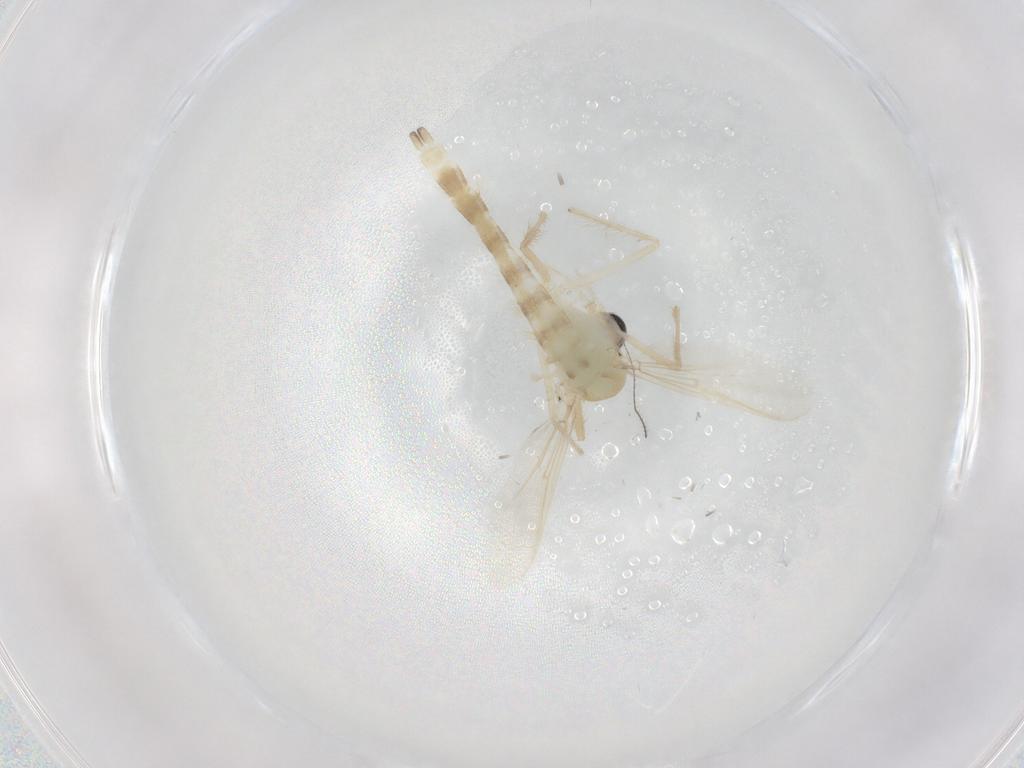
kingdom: Animalia
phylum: Arthropoda
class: Insecta
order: Diptera
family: Chironomidae
